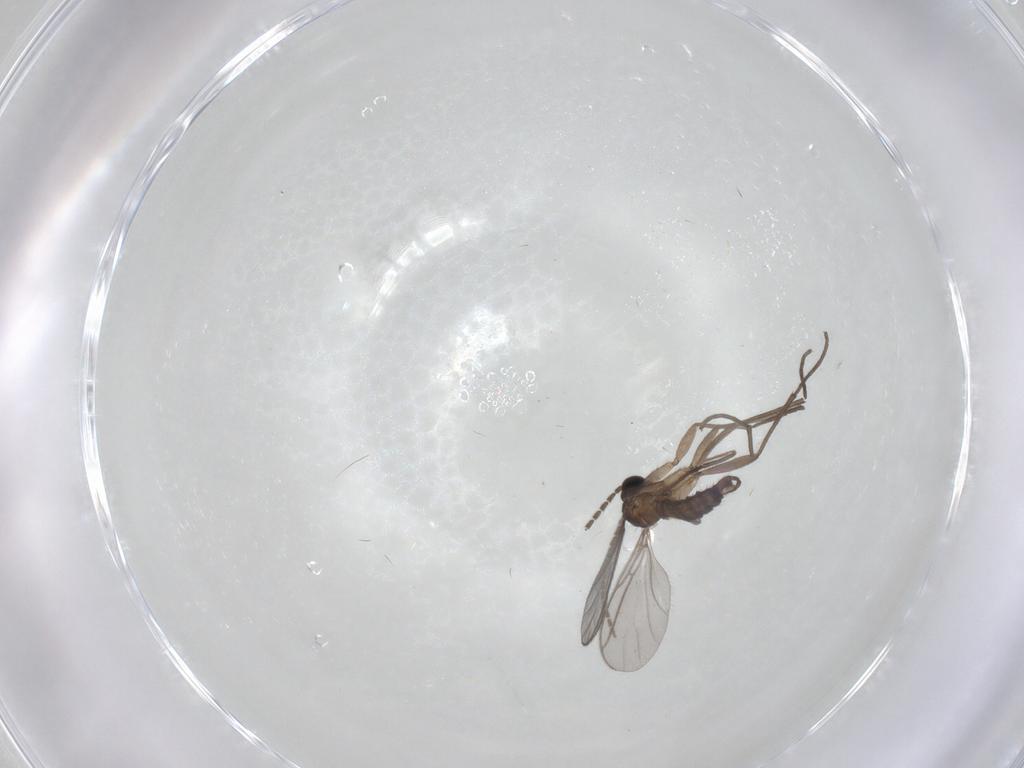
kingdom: Animalia
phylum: Arthropoda
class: Insecta
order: Diptera
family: Sciaridae
